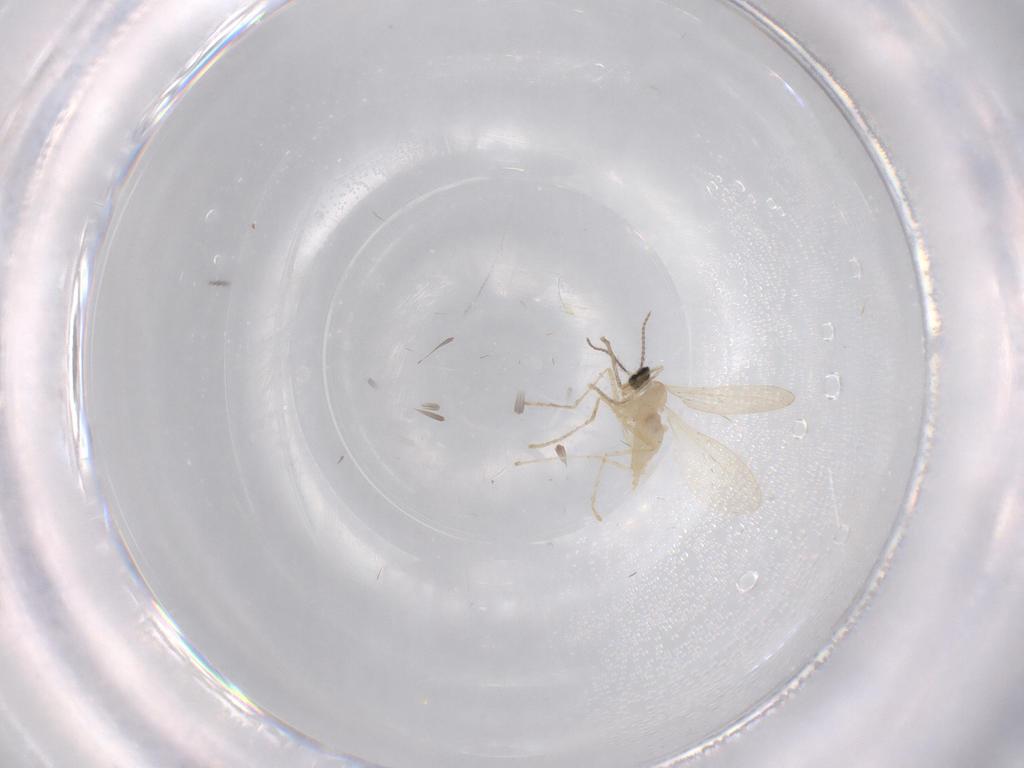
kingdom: Animalia
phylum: Arthropoda
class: Insecta
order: Diptera
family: Cecidomyiidae
